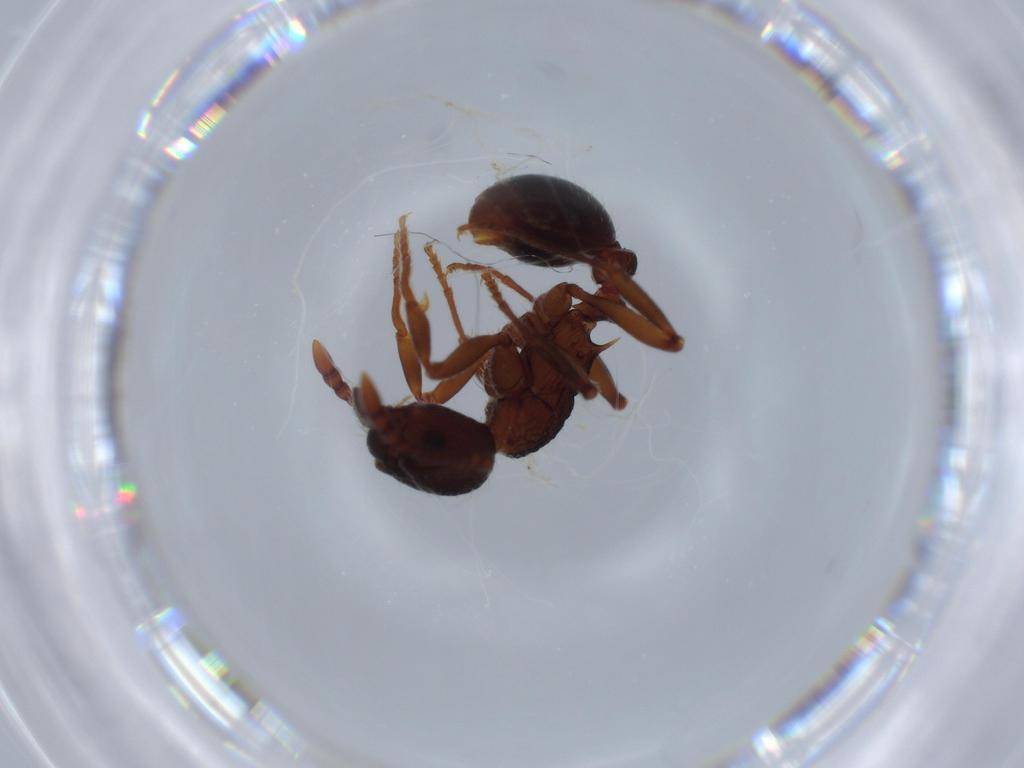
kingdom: Animalia
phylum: Arthropoda
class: Insecta
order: Hymenoptera
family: Formicidae
